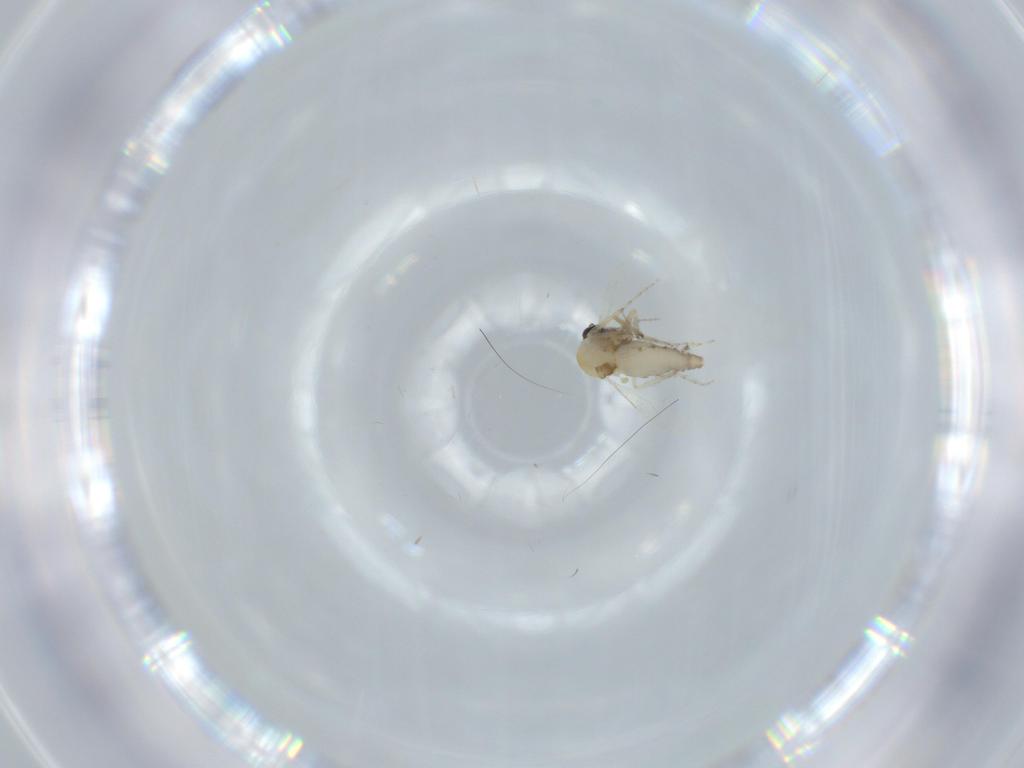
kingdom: Animalia
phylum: Arthropoda
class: Insecta
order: Diptera
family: Ceratopogonidae
